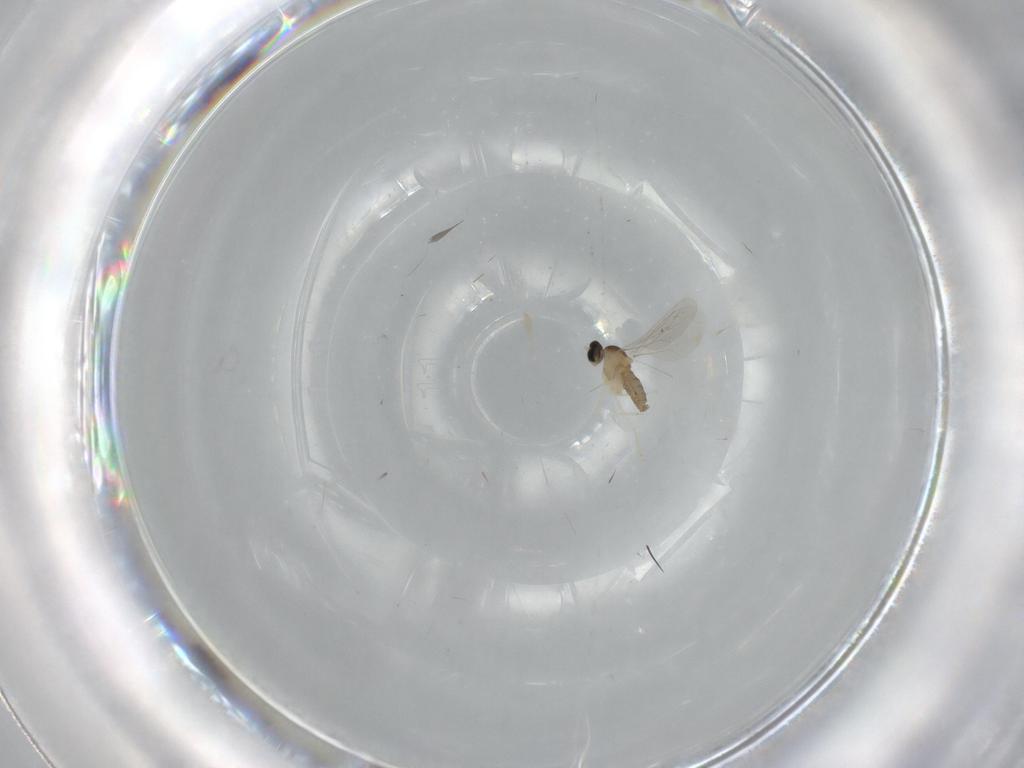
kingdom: Animalia
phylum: Arthropoda
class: Insecta
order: Diptera
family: Cecidomyiidae
